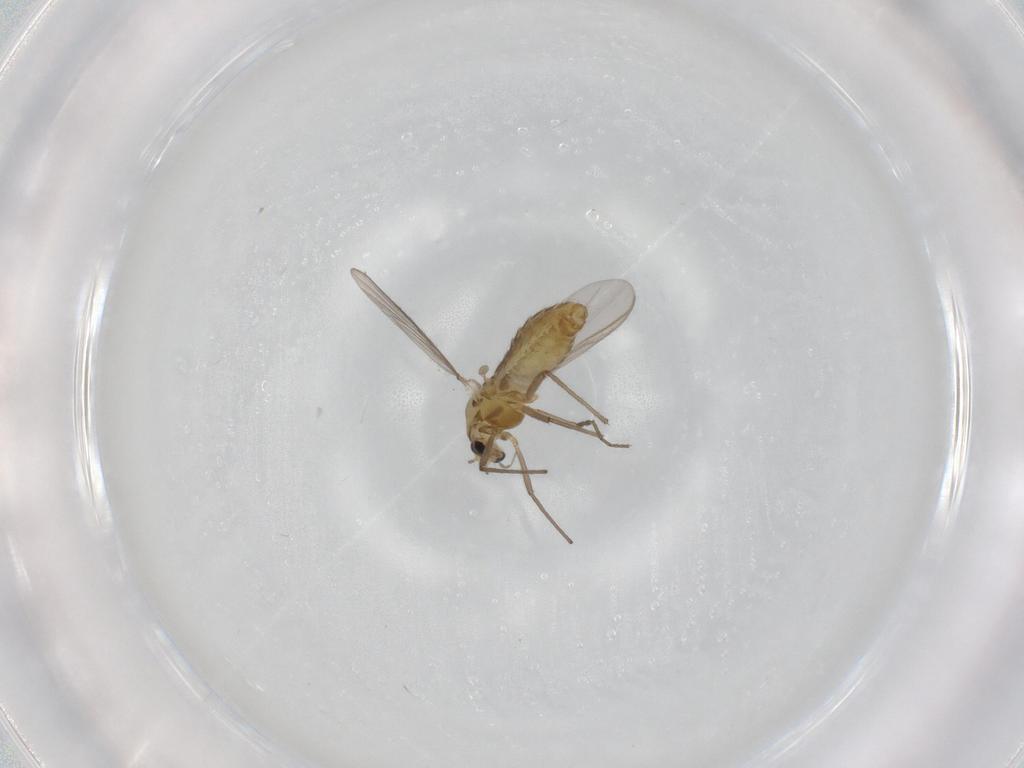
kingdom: Animalia
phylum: Arthropoda
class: Insecta
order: Diptera
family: Chironomidae
